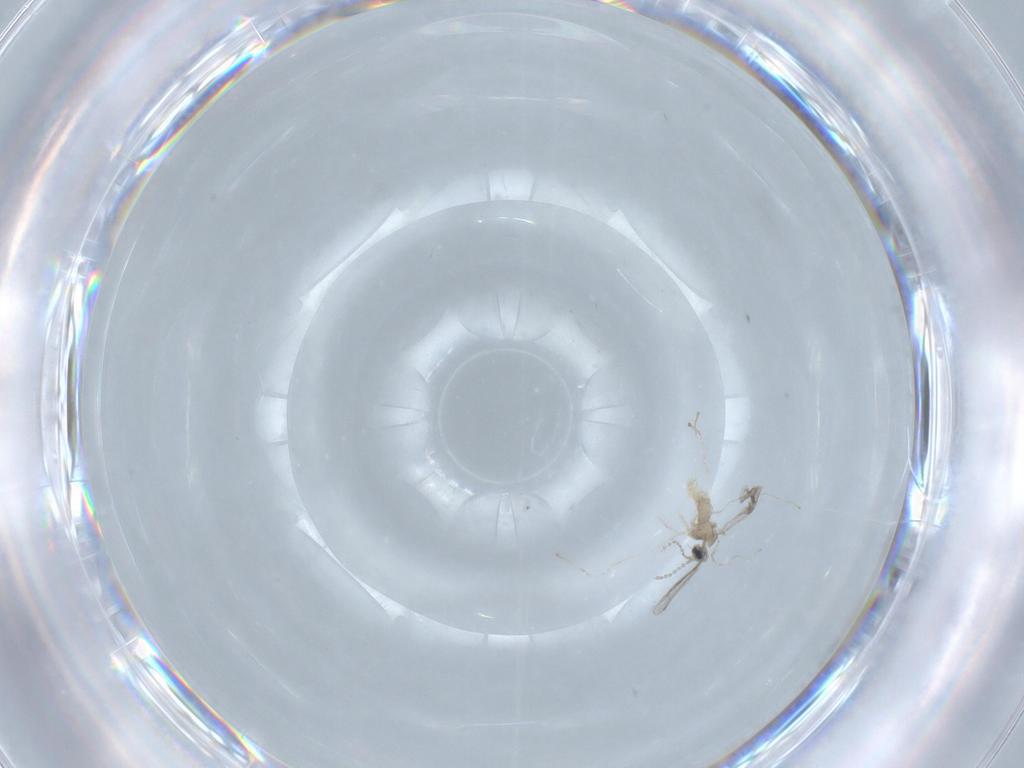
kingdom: Animalia
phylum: Arthropoda
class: Insecta
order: Diptera
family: Cecidomyiidae
